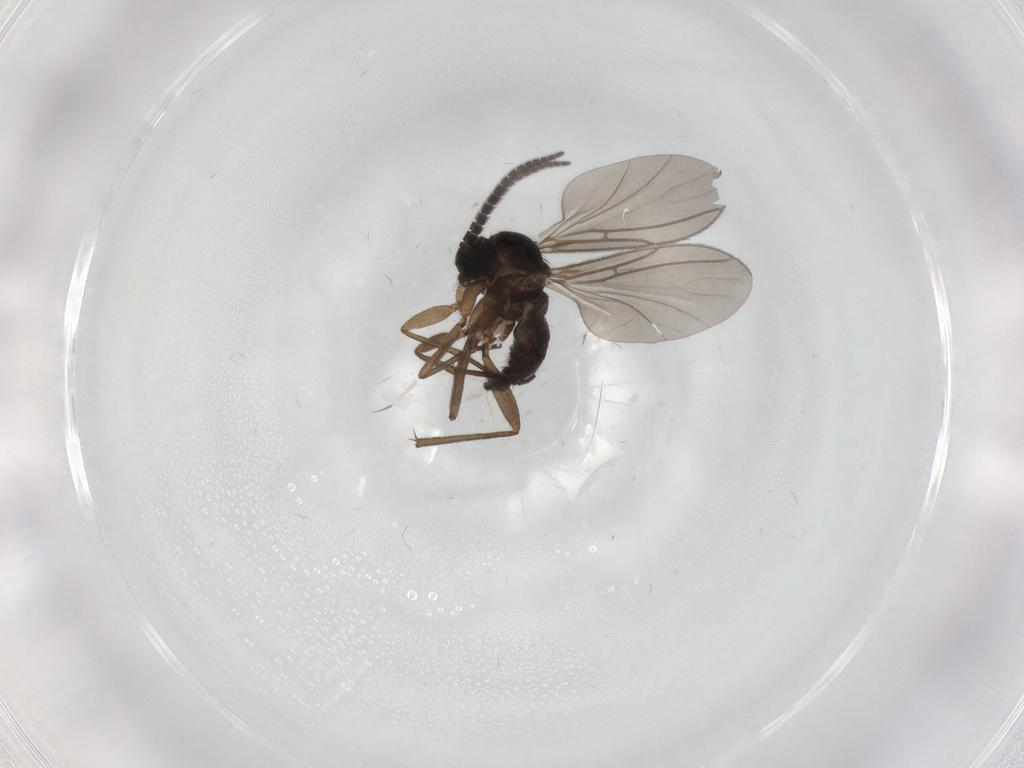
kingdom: Animalia
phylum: Arthropoda
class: Insecta
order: Diptera
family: Sciaridae
